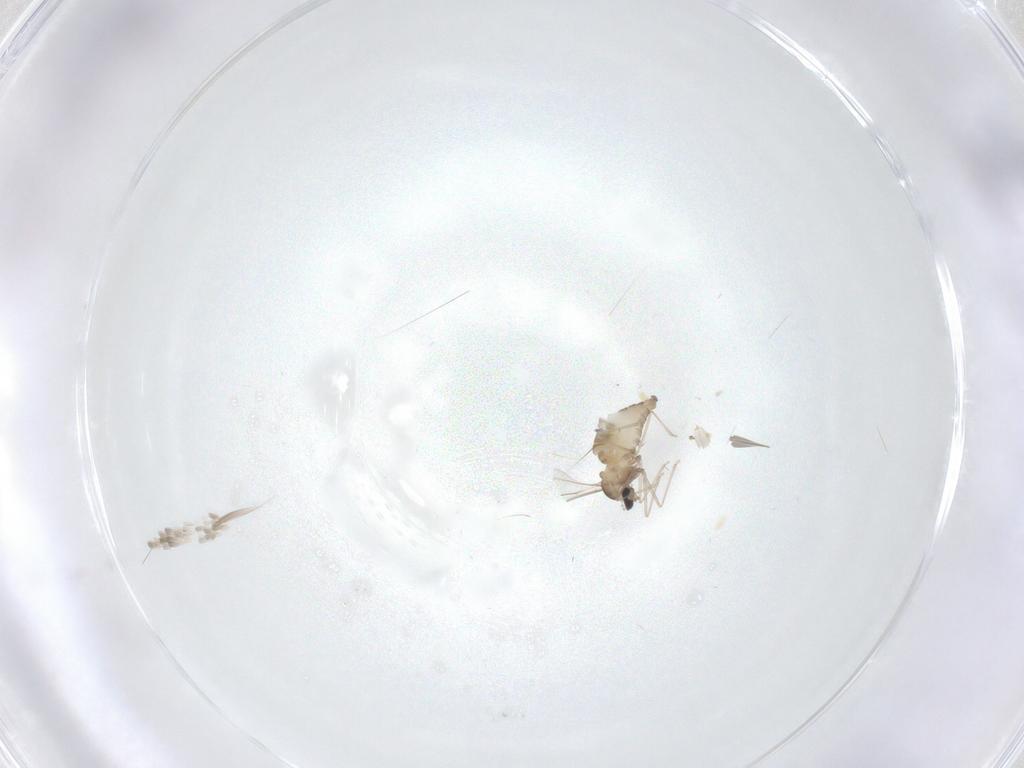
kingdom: Animalia
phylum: Arthropoda
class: Insecta
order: Diptera
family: Cecidomyiidae
